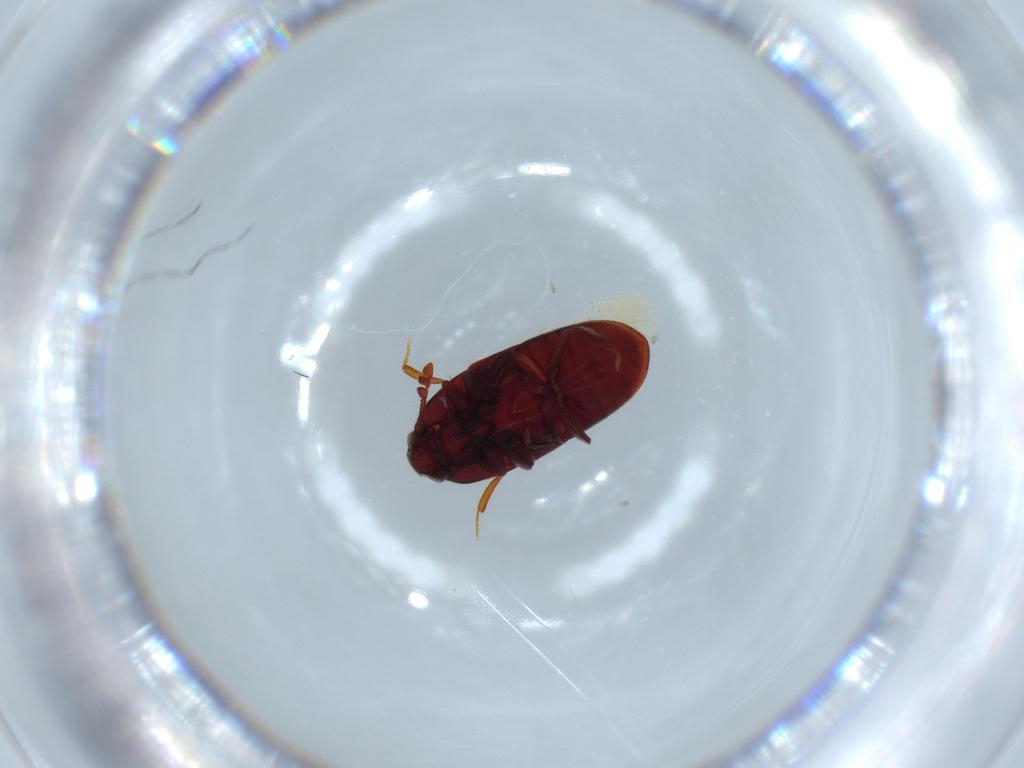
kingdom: Animalia
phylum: Arthropoda
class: Insecta
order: Coleoptera
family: Throscidae
